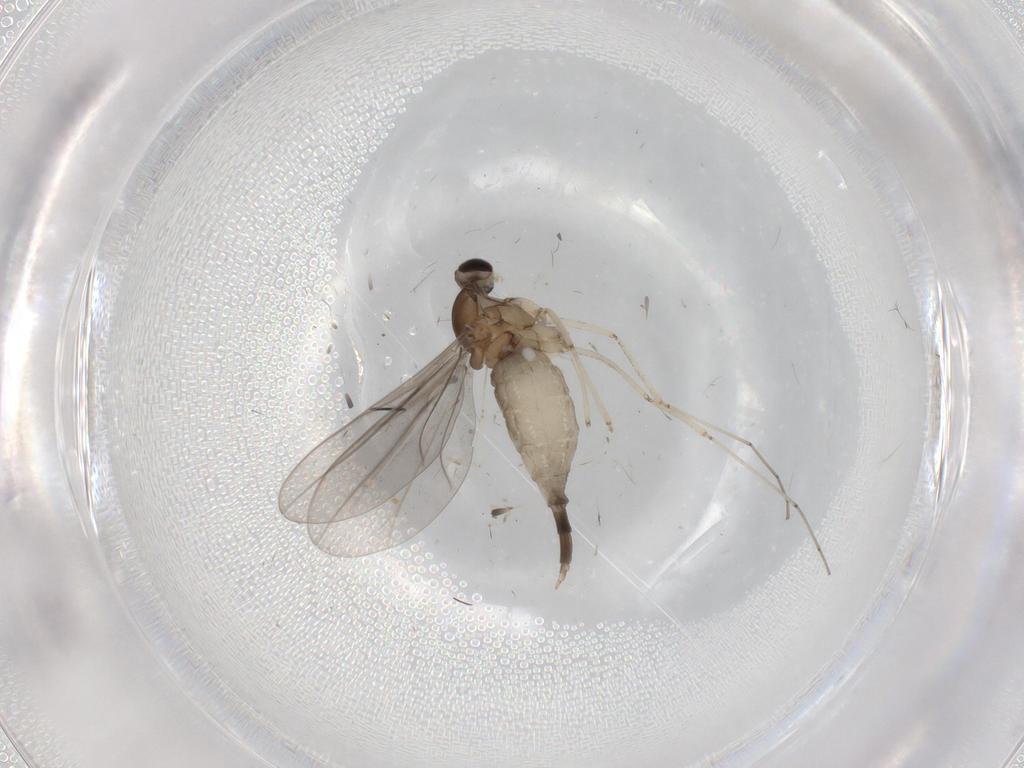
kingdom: Animalia
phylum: Arthropoda
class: Insecta
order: Diptera
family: Cecidomyiidae
